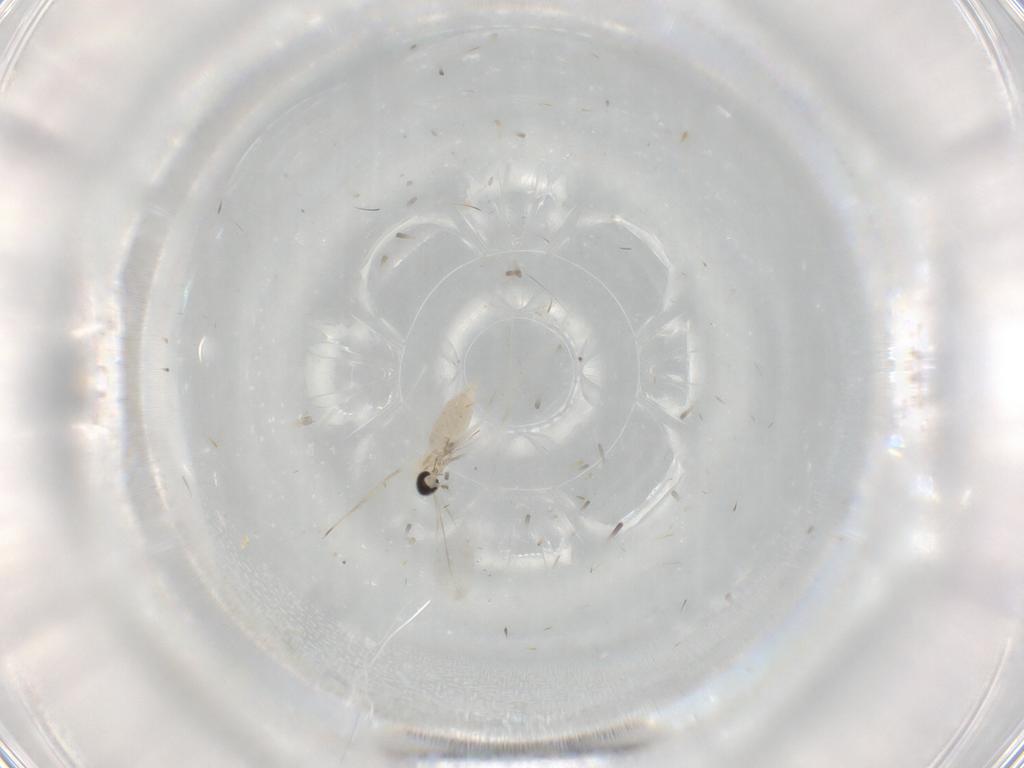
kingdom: Animalia
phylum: Arthropoda
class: Insecta
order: Diptera
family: Cecidomyiidae
